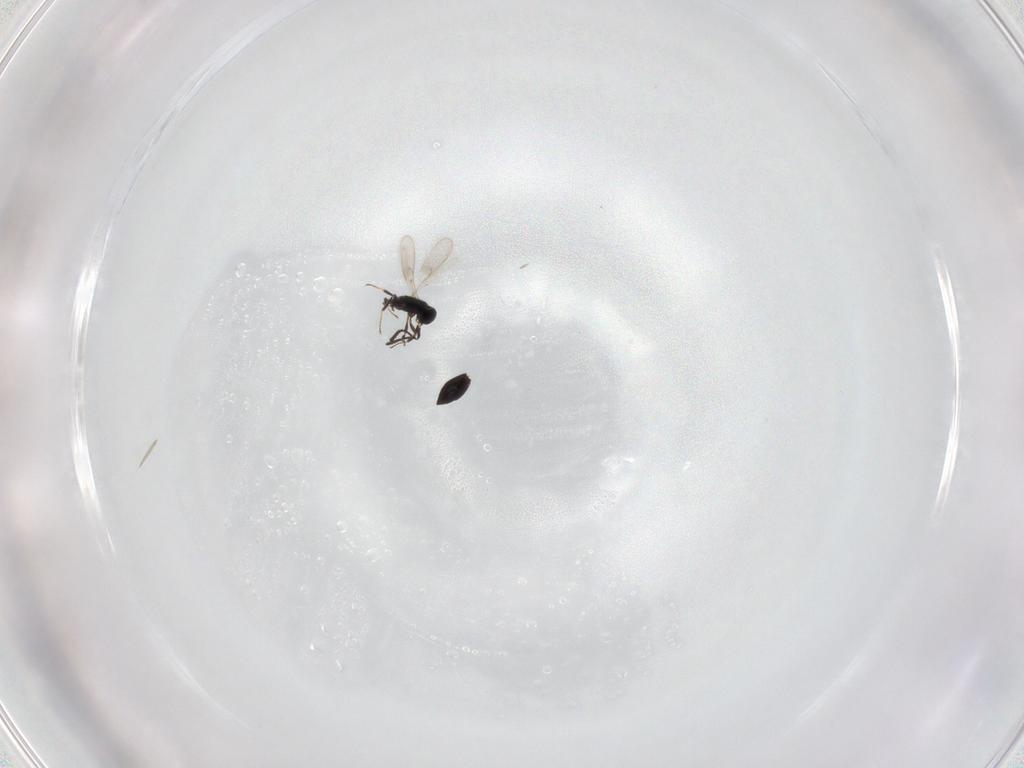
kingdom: Animalia
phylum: Arthropoda
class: Insecta
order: Hymenoptera
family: Scelionidae
